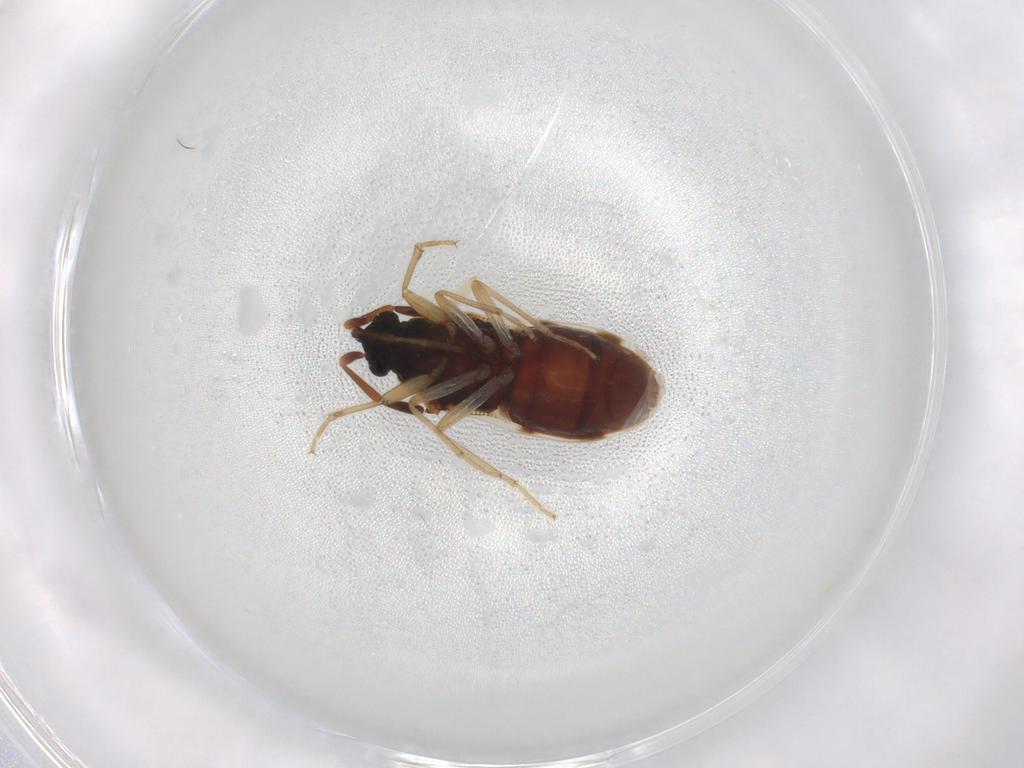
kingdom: Animalia
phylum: Arthropoda
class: Insecta
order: Hemiptera
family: Lygaeidae
